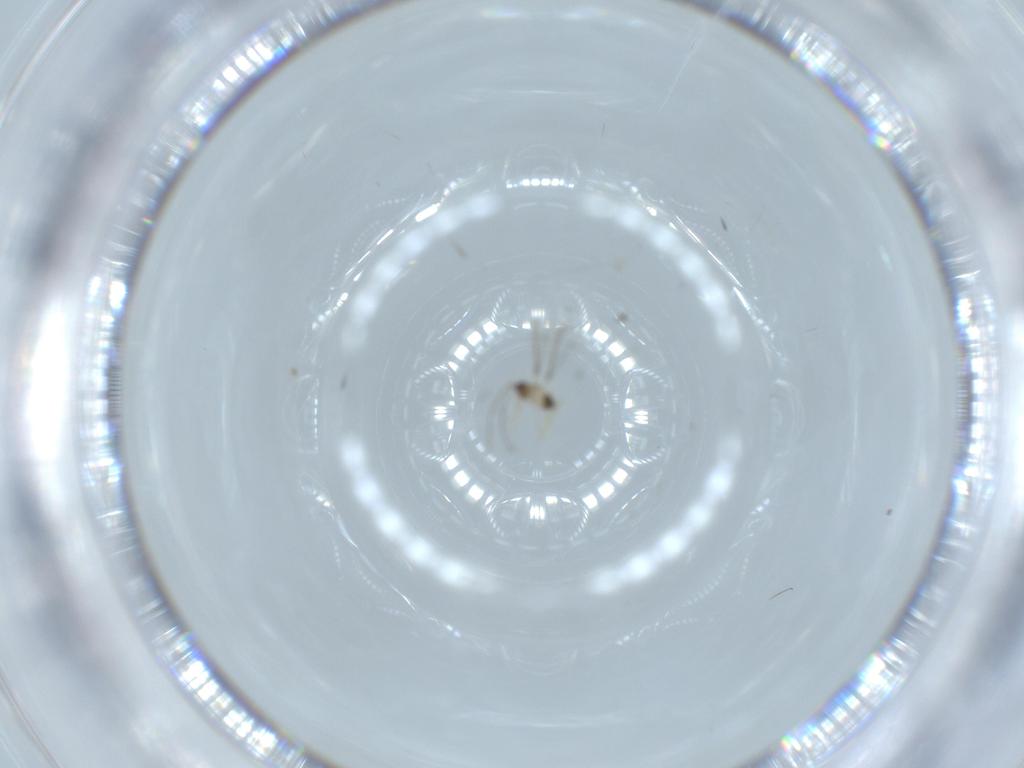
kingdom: Animalia
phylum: Arthropoda
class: Insecta
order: Hymenoptera
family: Mymaridae
